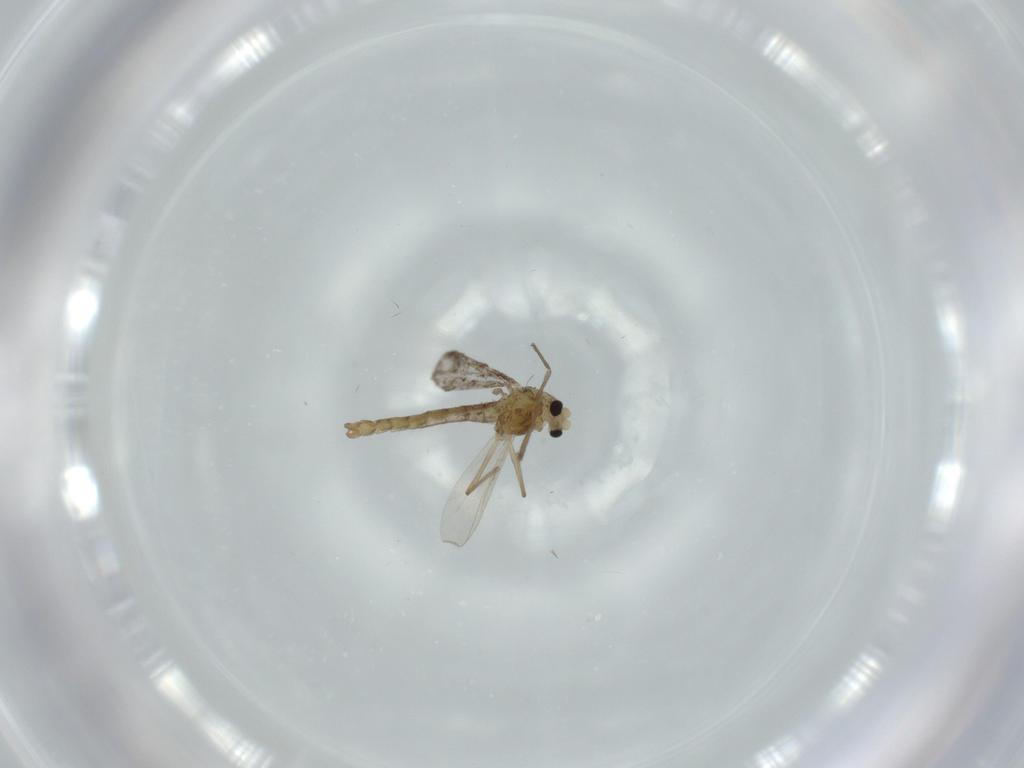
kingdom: Animalia
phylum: Arthropoda
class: Insecta
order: Diptera
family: Chironomidae
